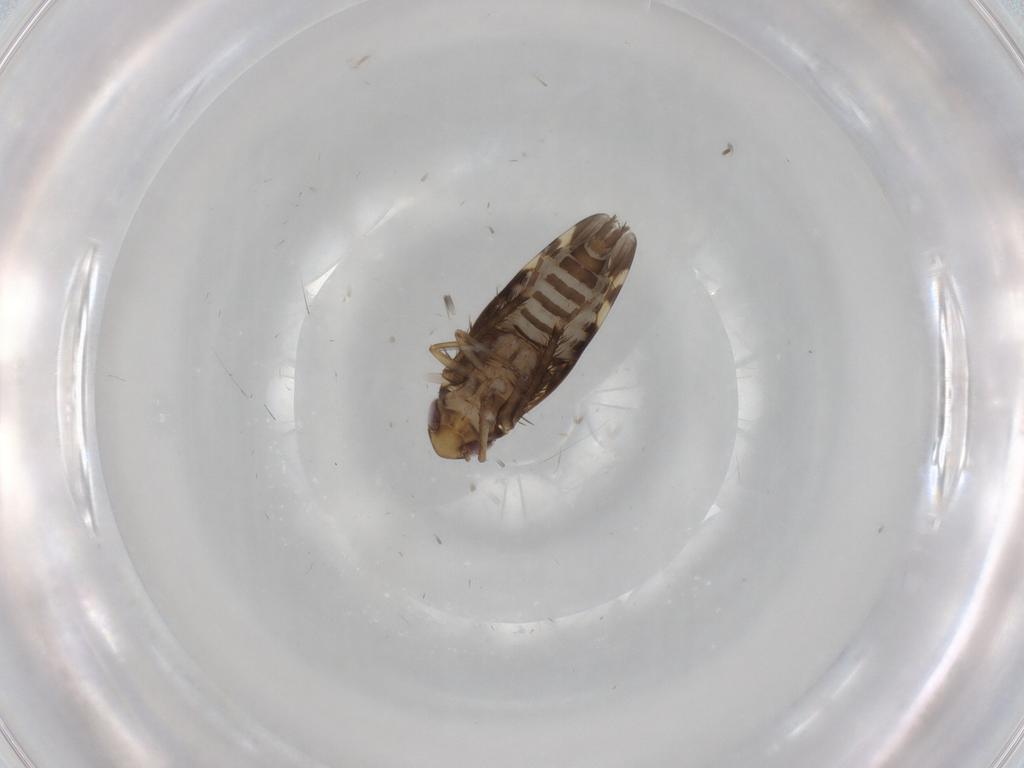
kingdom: Animalia
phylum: Arthropoda
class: Insecta
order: Hemiptera
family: Cicadellidae
